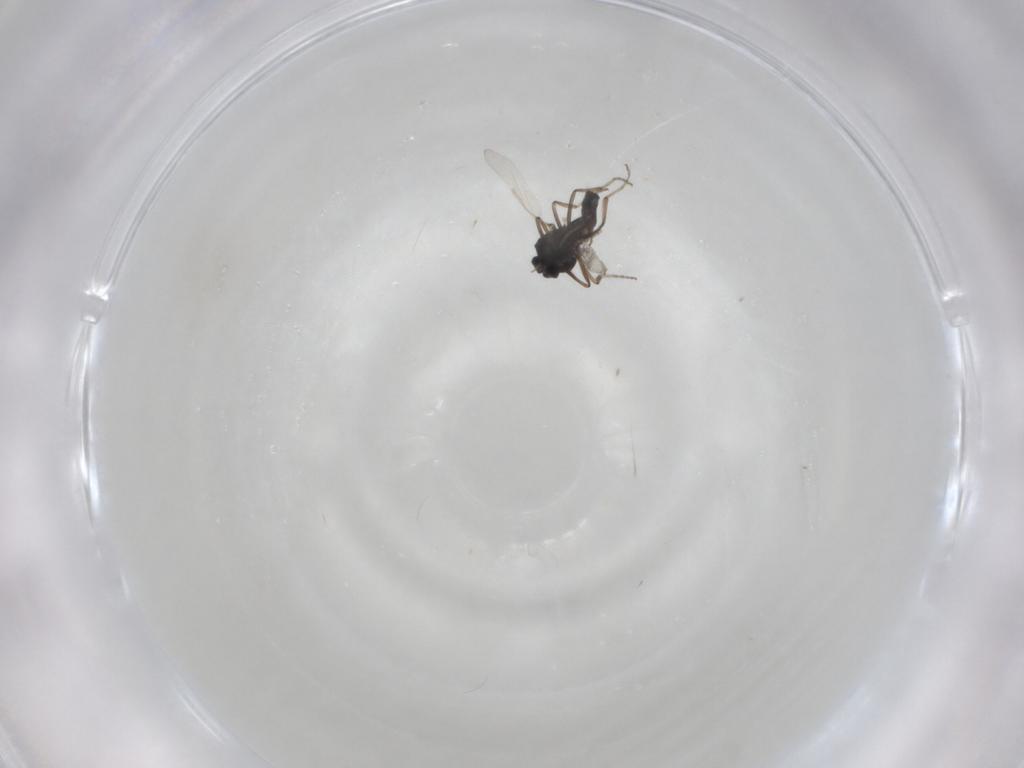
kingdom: Animalia
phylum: Arthropoda
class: Insecta
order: Diptera
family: Ceratopogonidae
